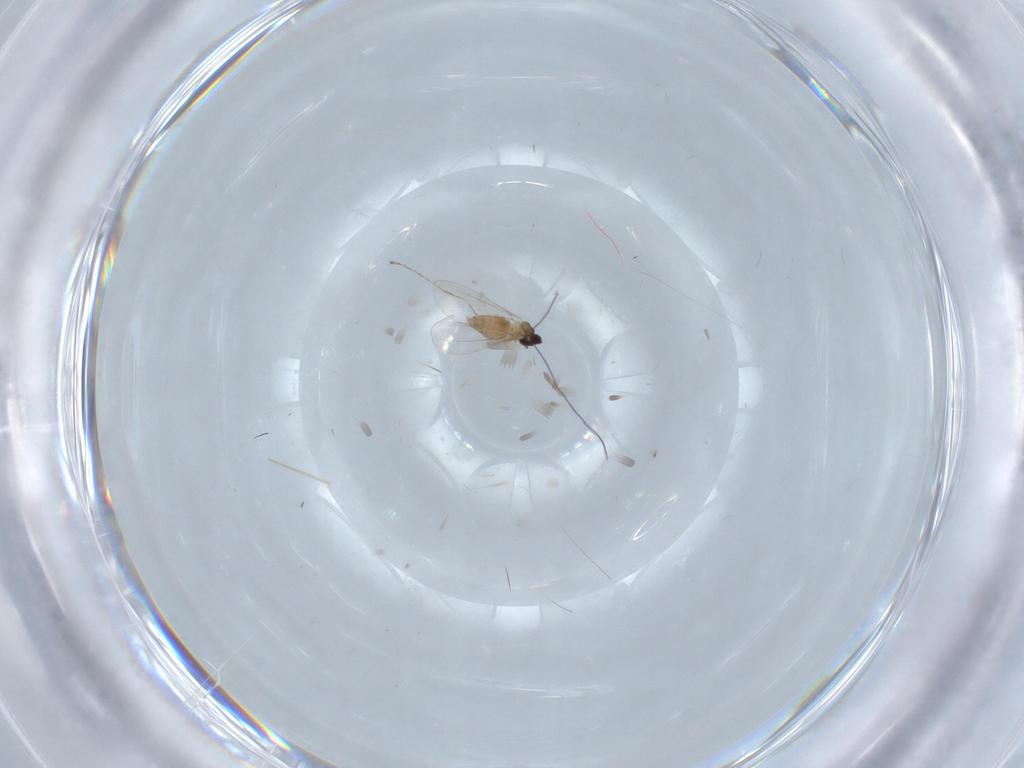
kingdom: Animalia
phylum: Arthropoda
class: Insecta
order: Diptera
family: Cecidomyiidae
